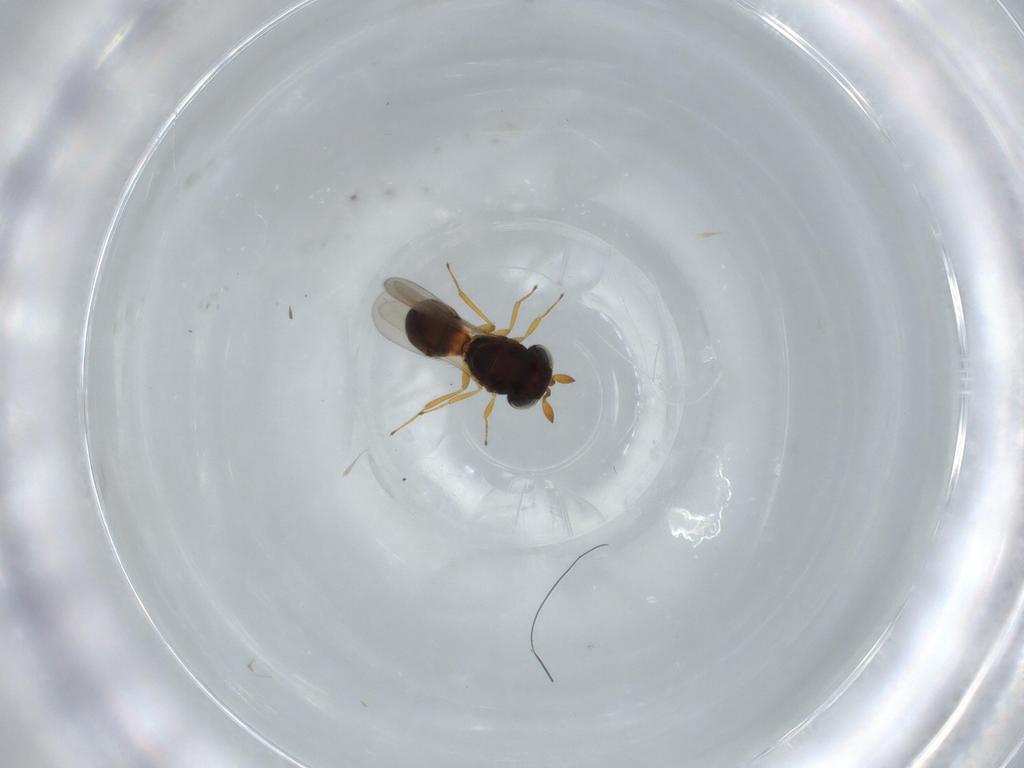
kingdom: Animalia
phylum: Arthropoda
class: Insecta
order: Hymenoptera
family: Scelionidae
